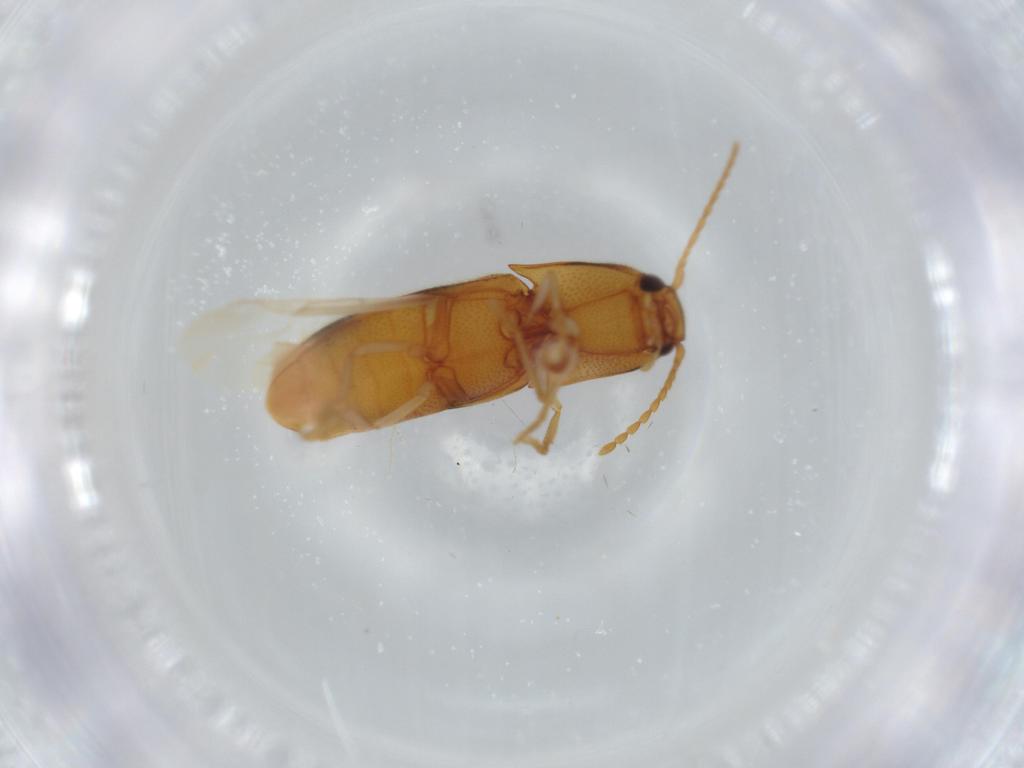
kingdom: Animalia
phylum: Arthropoda
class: Insecta
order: Coleoptera
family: Elateridae
